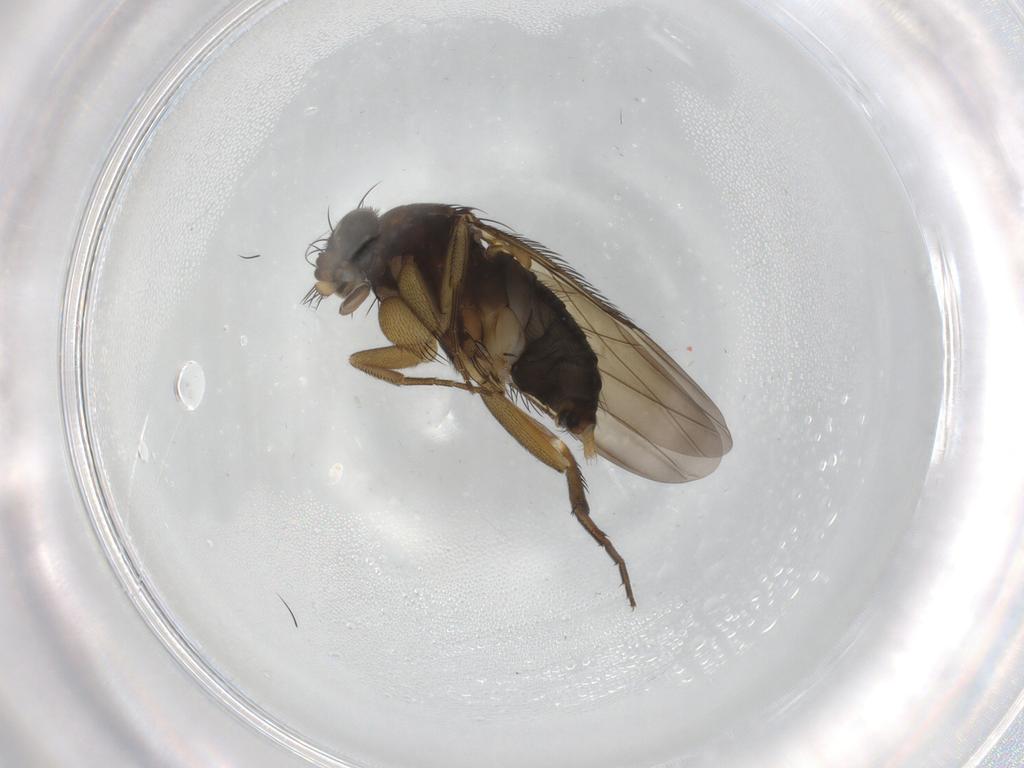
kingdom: Animalia
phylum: Arthropoda
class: Insecta
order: Diptera
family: Phoridae
